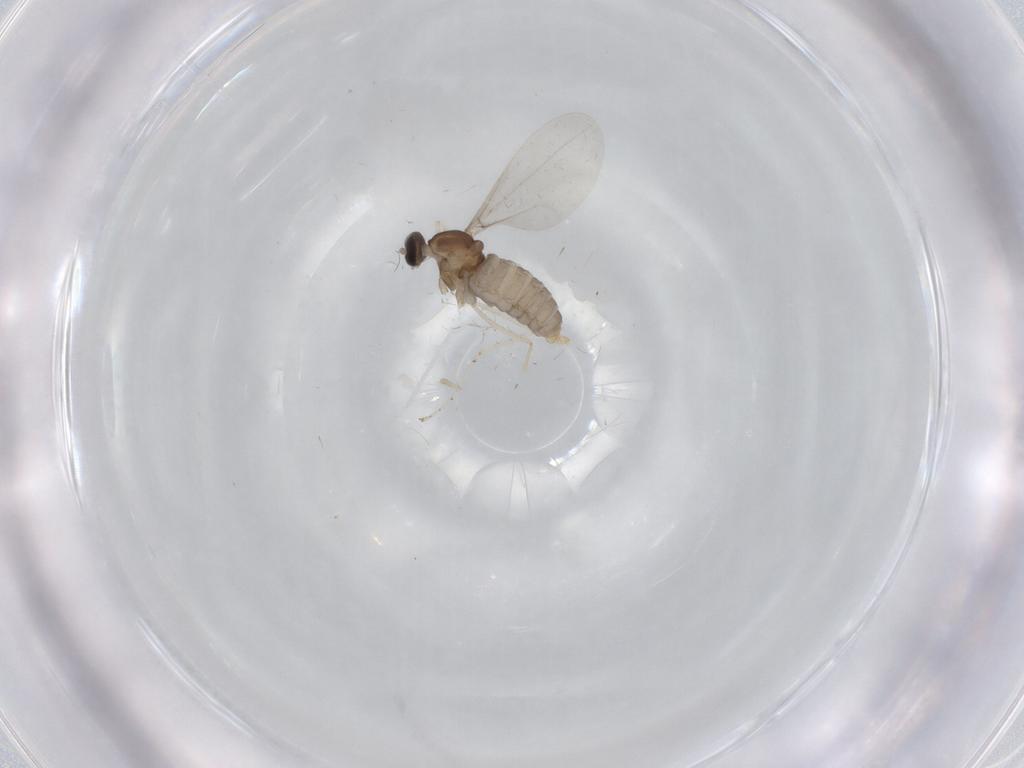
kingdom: Animalia
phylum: Arthropoda
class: Insecta
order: Diptera
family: Cecidomyiidae
